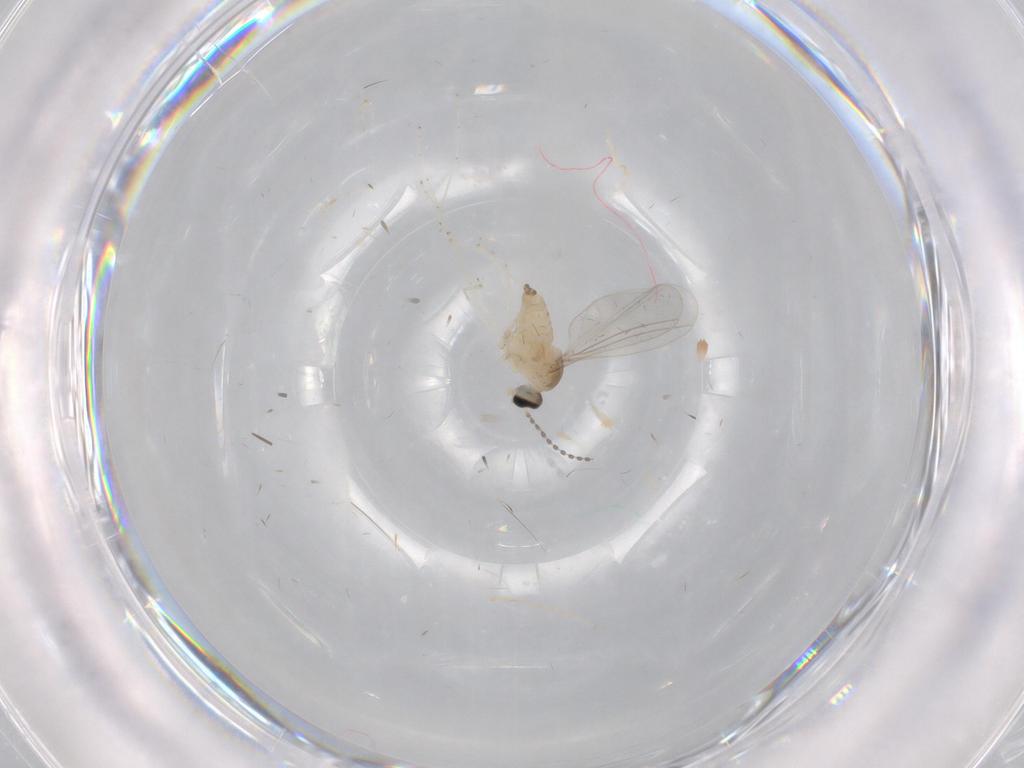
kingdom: Animalia
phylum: Arthropoda
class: Insecta
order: Diptera
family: Cecidomyiidae
